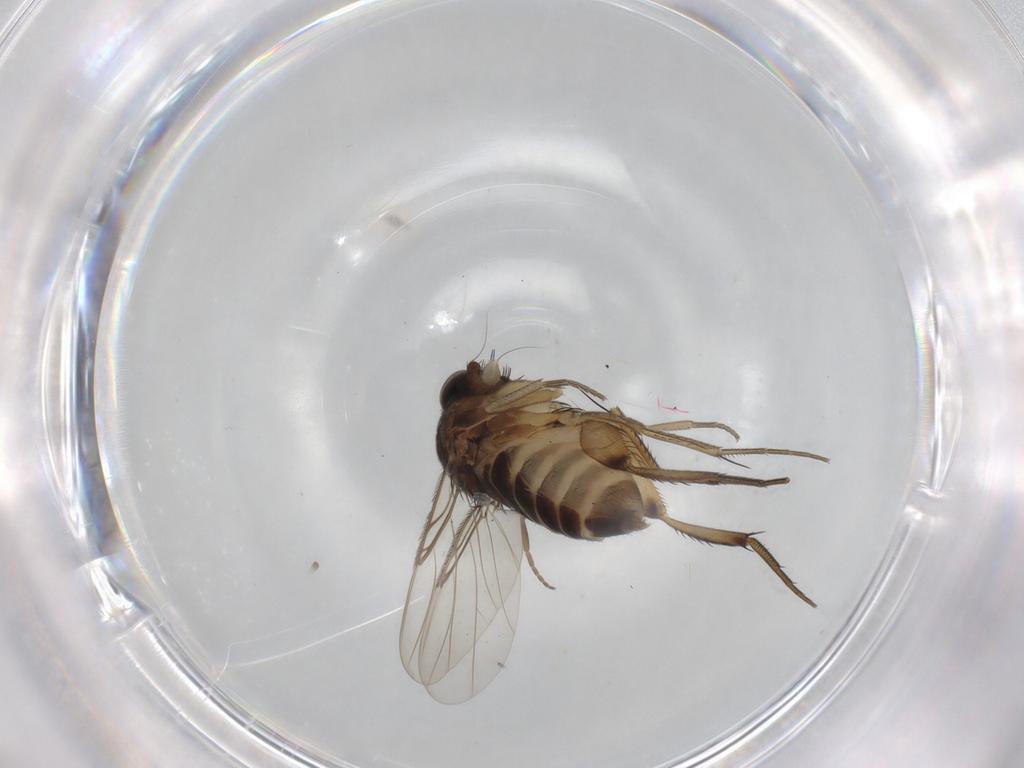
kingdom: Animalia
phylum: Arthropoda
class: Insecta
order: Diptera
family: Phoridae
